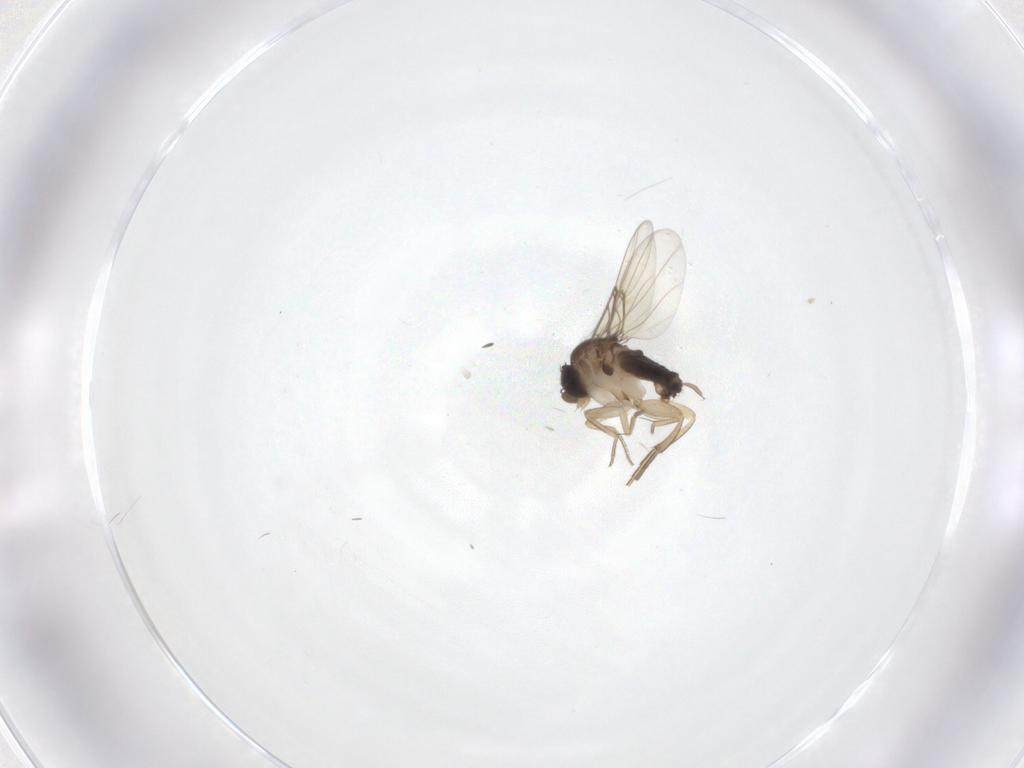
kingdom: Animalia
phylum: Arthropoda
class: Insecta
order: Diptera
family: Phoridae
